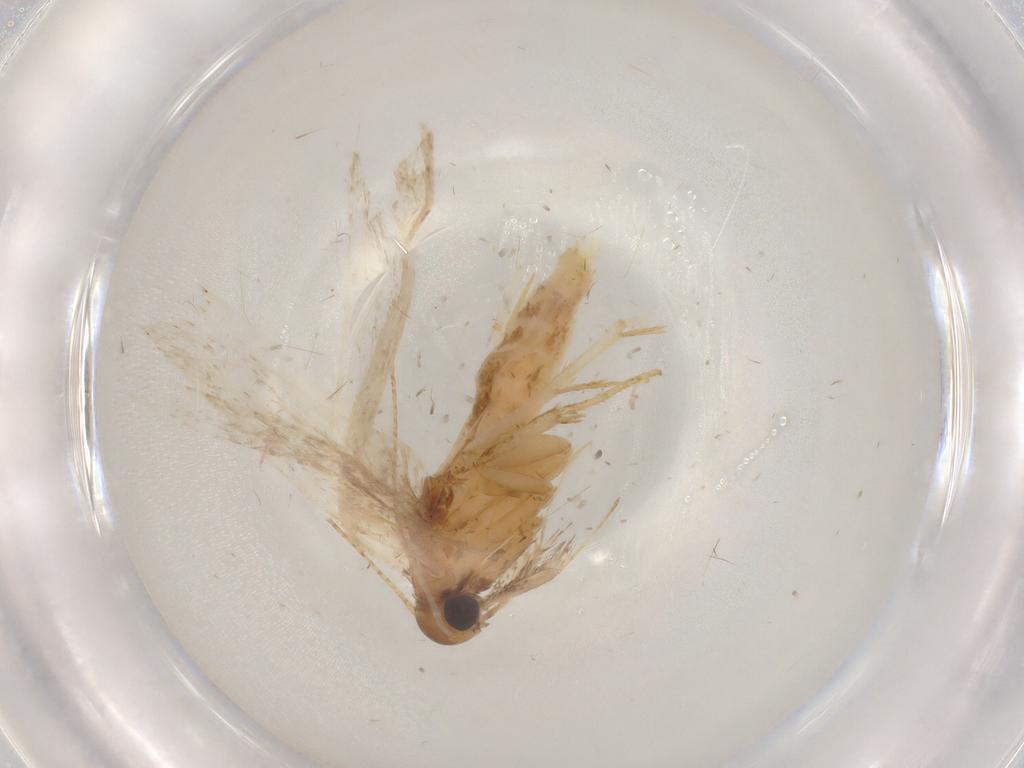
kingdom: Animalia
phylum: Arthropoda
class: Insecta
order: Lepidoptera
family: Gelechiidae
